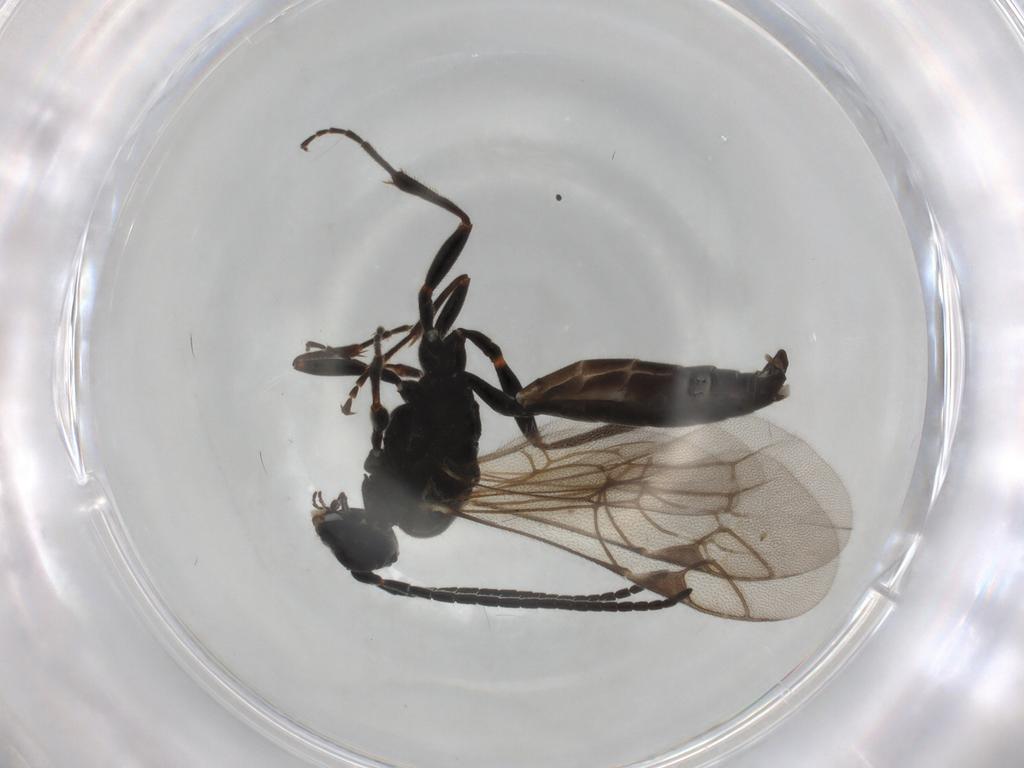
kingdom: Animalia
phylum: Arthropoda
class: Insecta
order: Hymenoptera
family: Ichneumonidae
